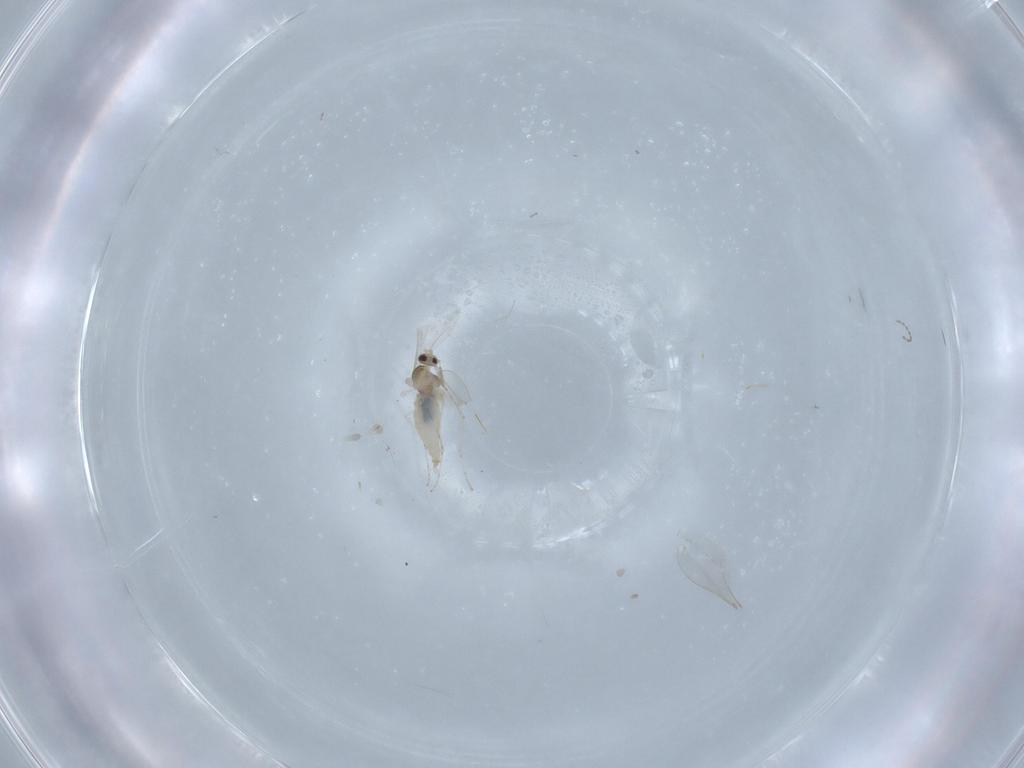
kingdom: Animalia
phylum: Arthropoda
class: Insecta
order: Diptera
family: Cecidomyiidae
